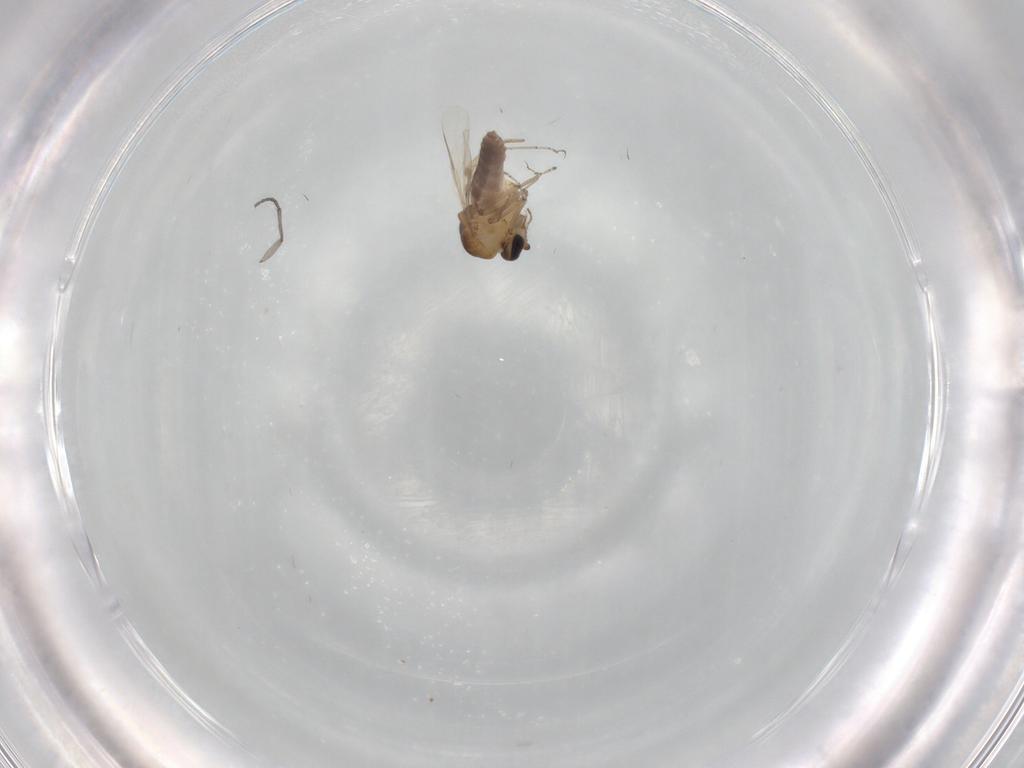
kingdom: Animalia
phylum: Arthropoda
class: Insecta
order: Diptera
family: Ceratopogonidae
